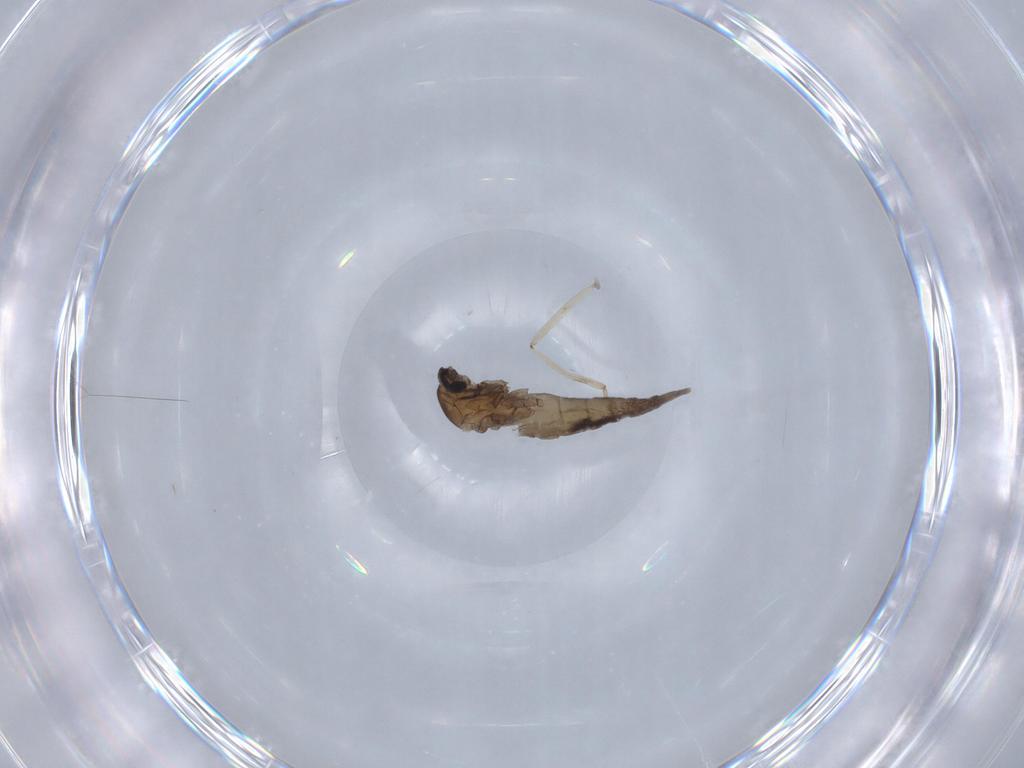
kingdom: Animalia
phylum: Arthropoda
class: Insecta
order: Diptera
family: Cecidomyiidae
